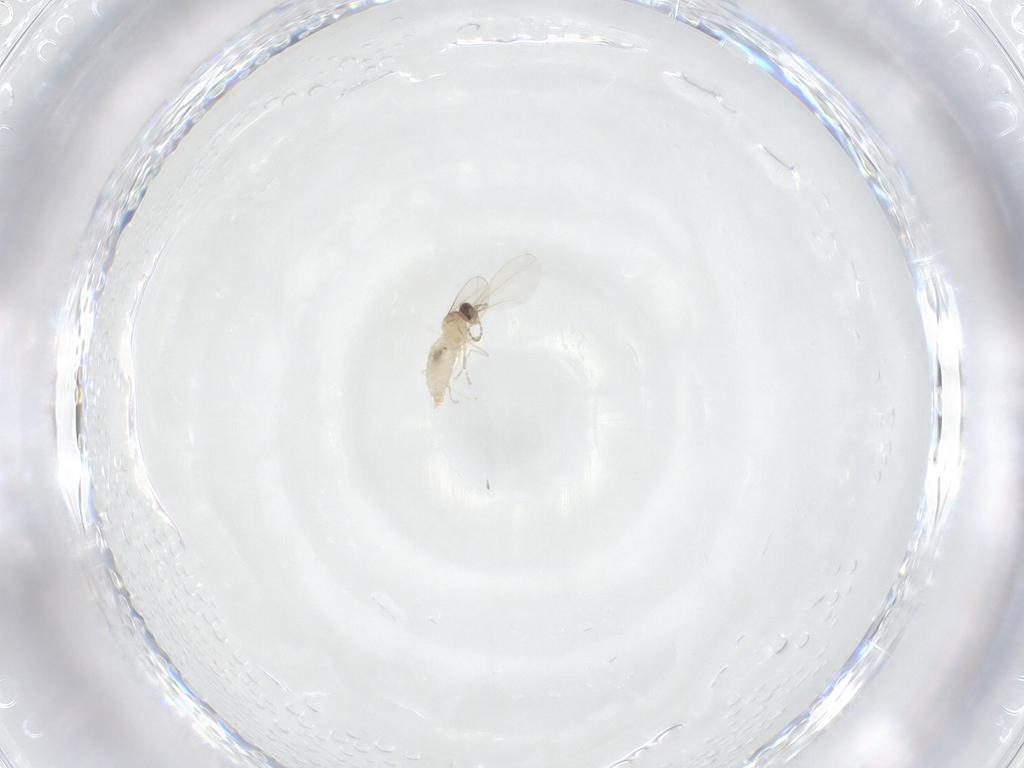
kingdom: Animalia
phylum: Arthropoda
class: Insecta
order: Diptera
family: Cecidomyiidae
